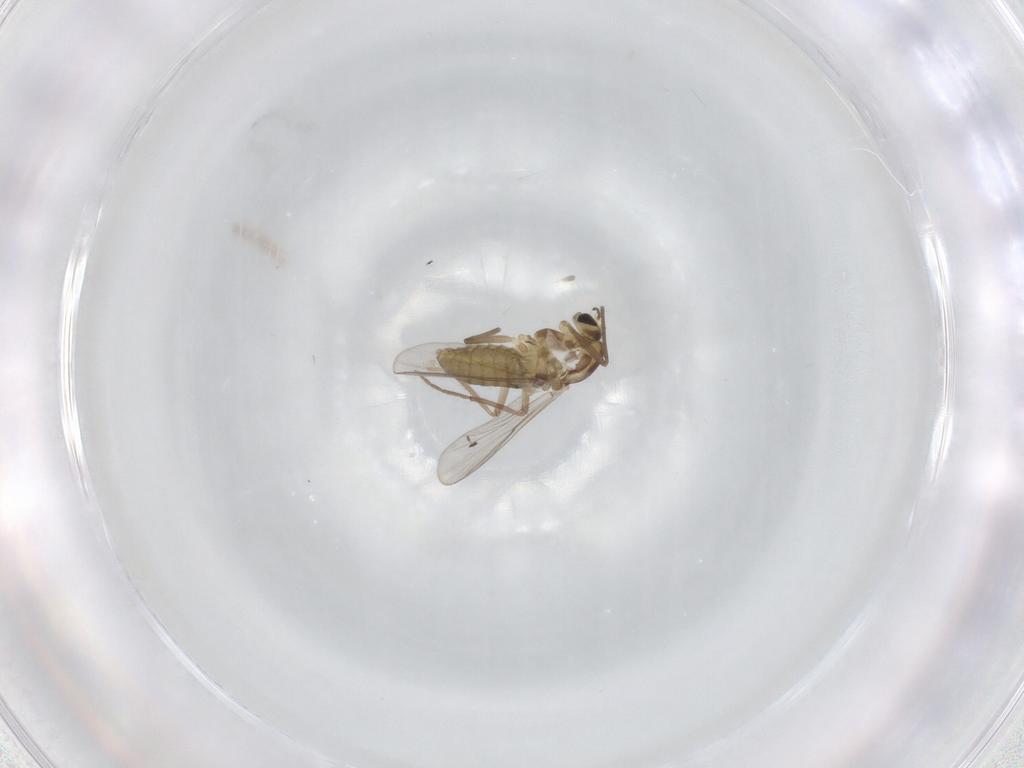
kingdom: Animalia
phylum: Arthropoda
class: Insecta
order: Diptera
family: Chironomidae
